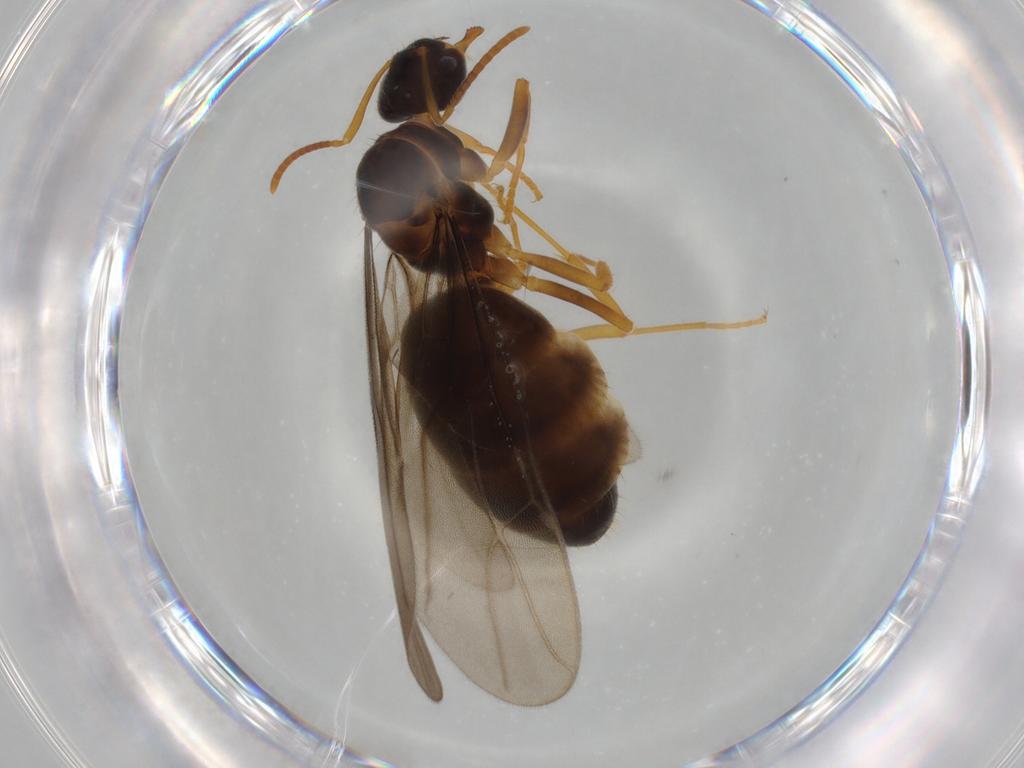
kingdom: Animalia
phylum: Arthropoda
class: Insecta
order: Hymenoptera
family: Formicidae
